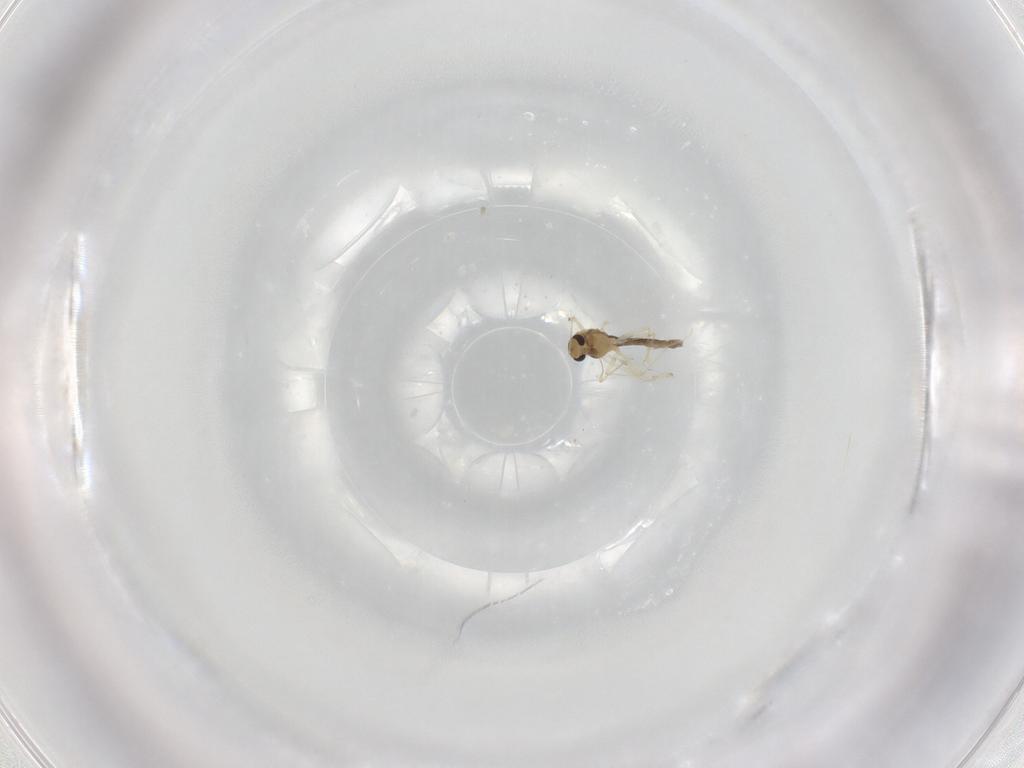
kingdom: Animalia
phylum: Arthropoda
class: Insecta
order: Diptera
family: Chironomidae
